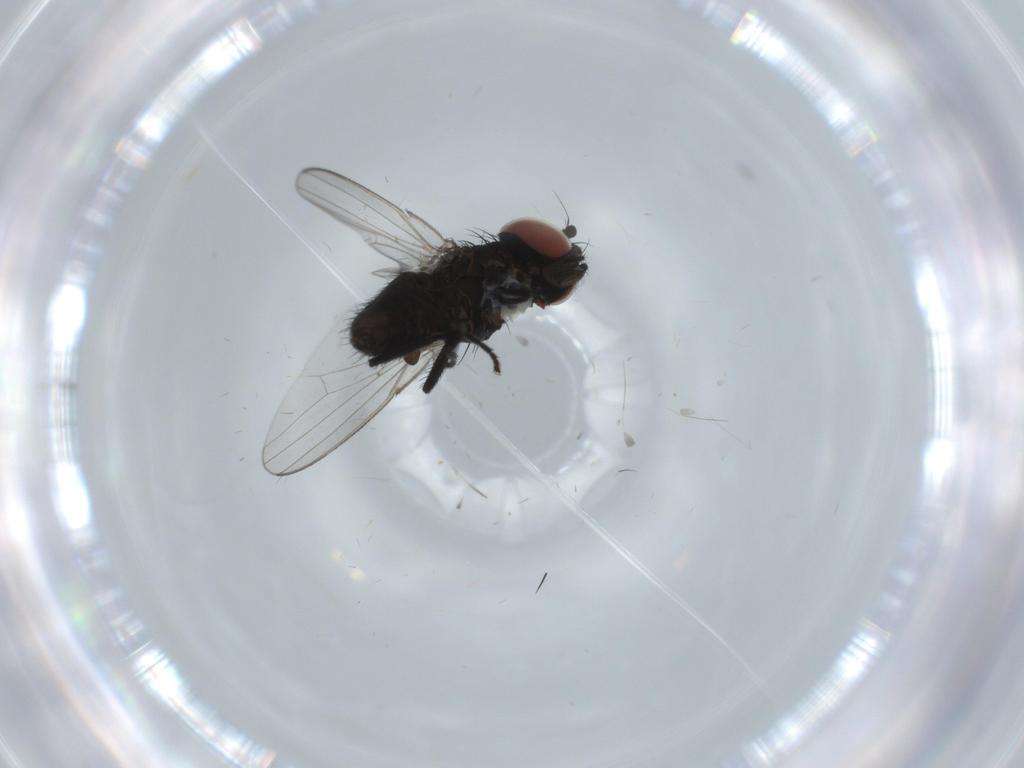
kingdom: Animalia
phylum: Arthropoda
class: Insecta
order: Diptera
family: Milichiidae
